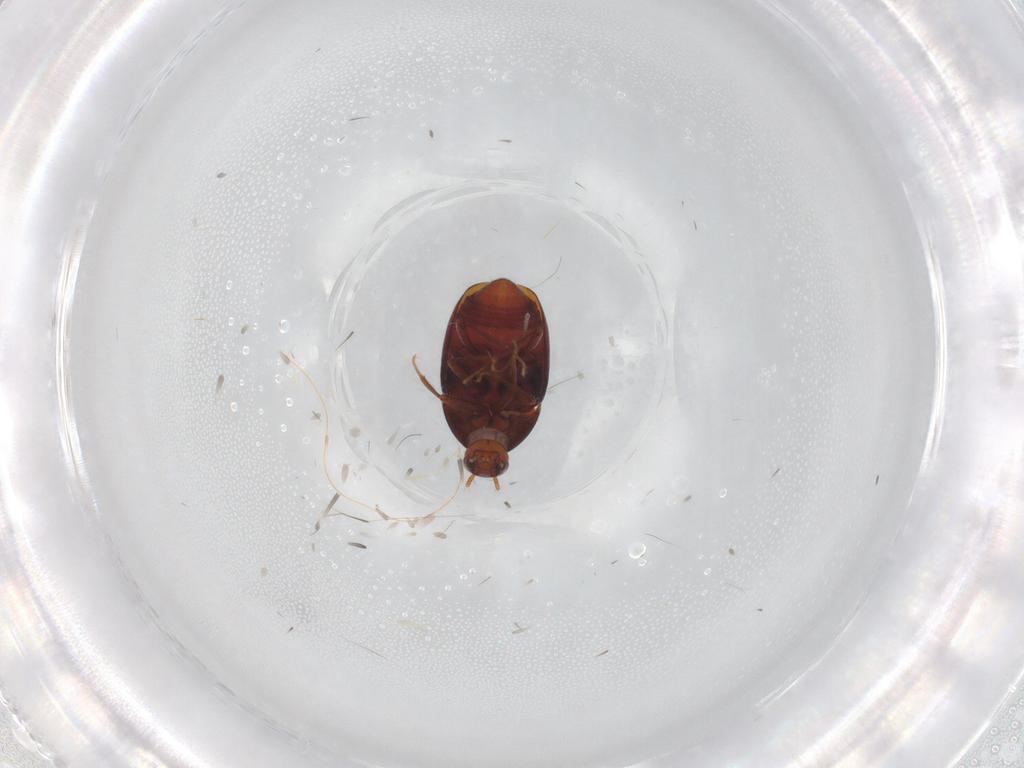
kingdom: Animalia
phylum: Arthropoda
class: Insecta
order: Coleoptera
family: Staphylinidae
